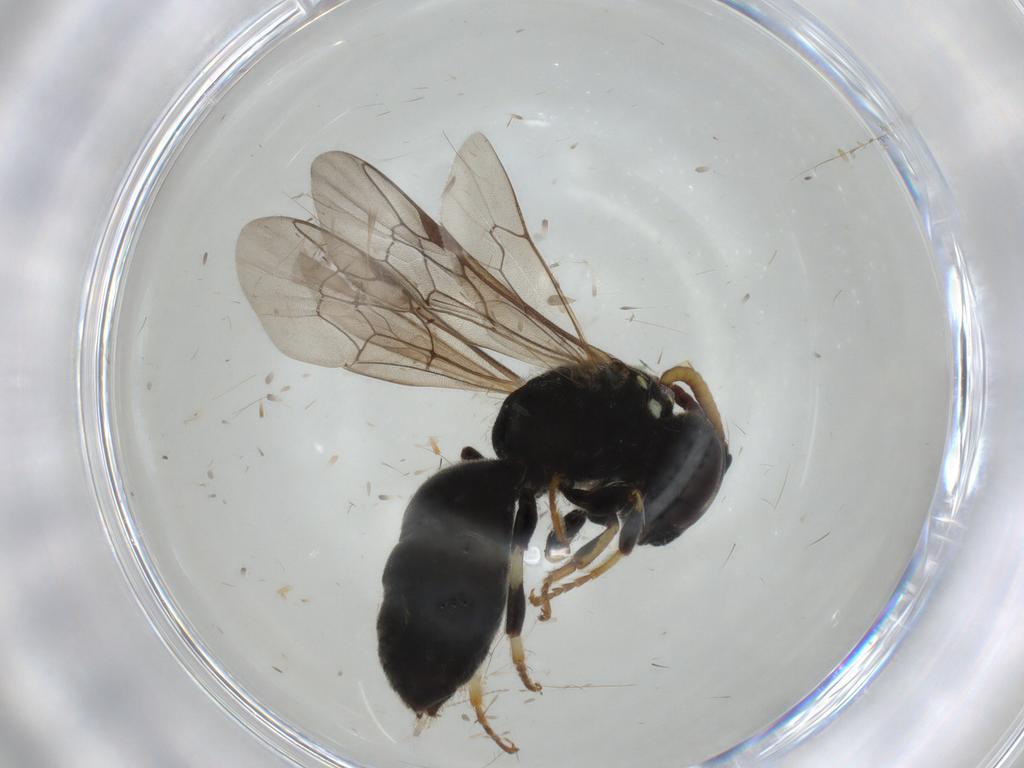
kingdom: Animalia
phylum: Arthropoda
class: Insecta
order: Hymenoptera
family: Colletidae
